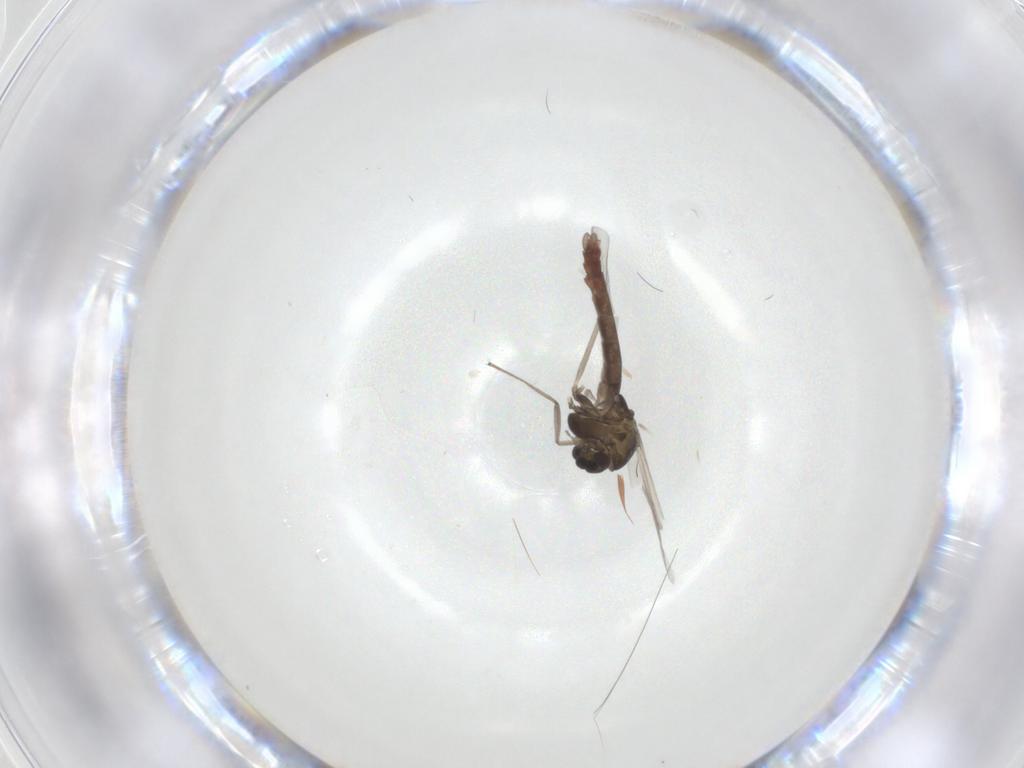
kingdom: Animalia
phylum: Arthropoda
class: Insecta
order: Diptera
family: Chironomidae
